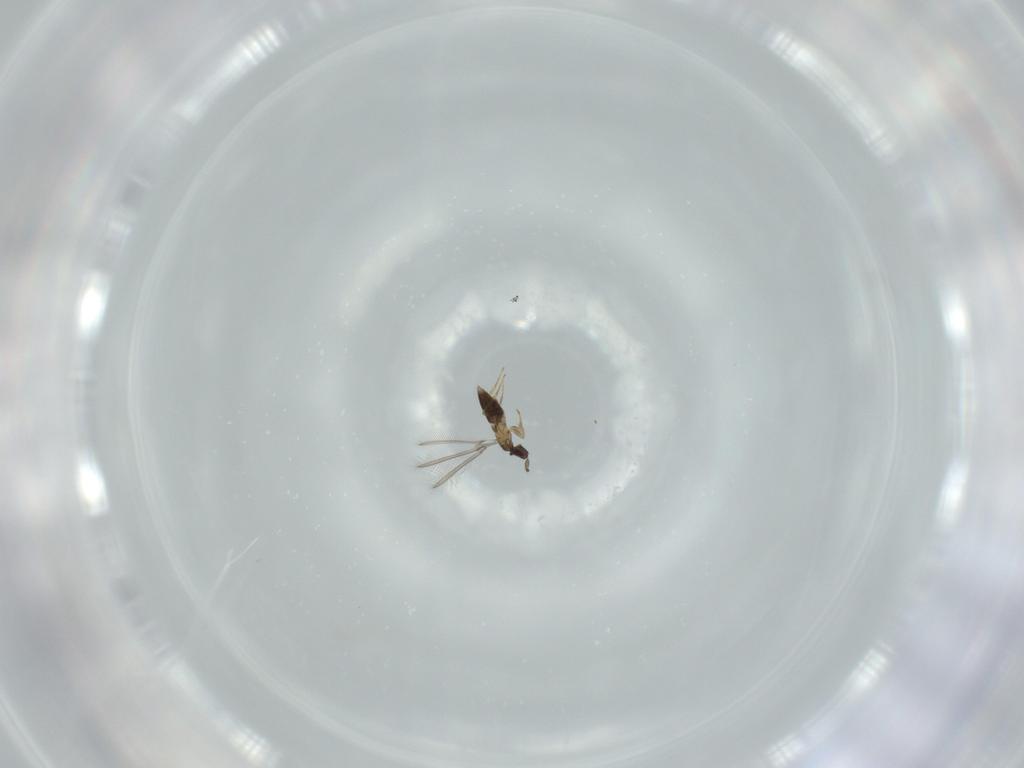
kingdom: Animalia
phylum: Arthropoda
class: Insecta
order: Hymenoptera
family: Mymaridae
